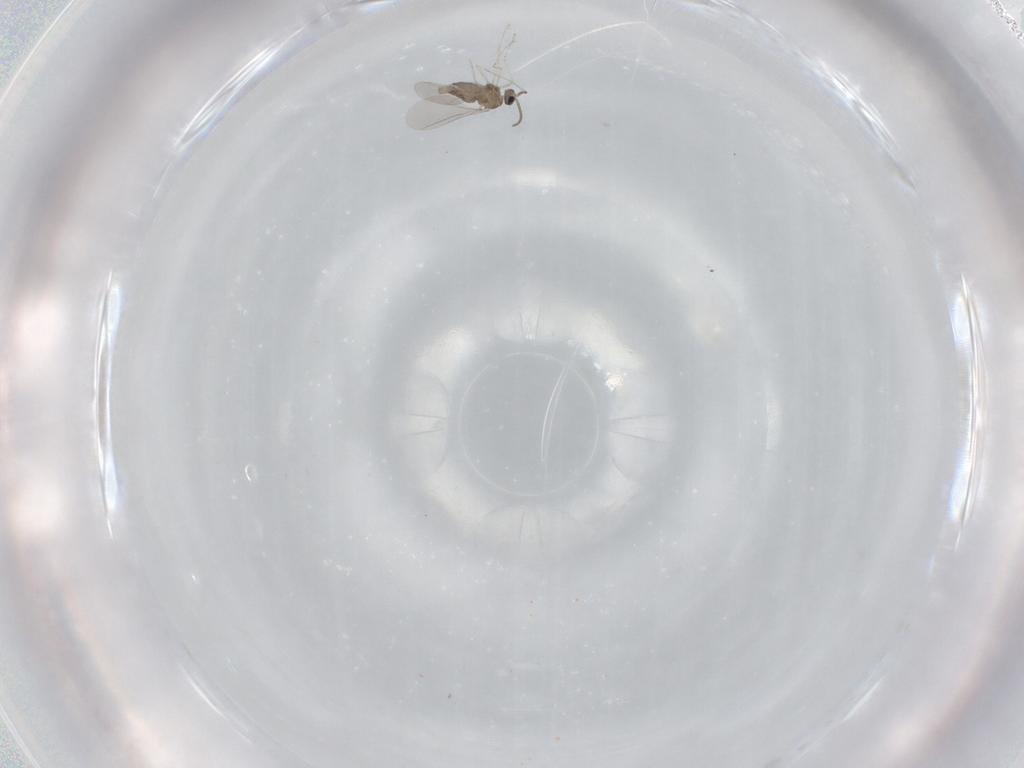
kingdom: Animalia
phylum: Arthropoda
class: Insecta
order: Diptera
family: Cecidomyiidae
